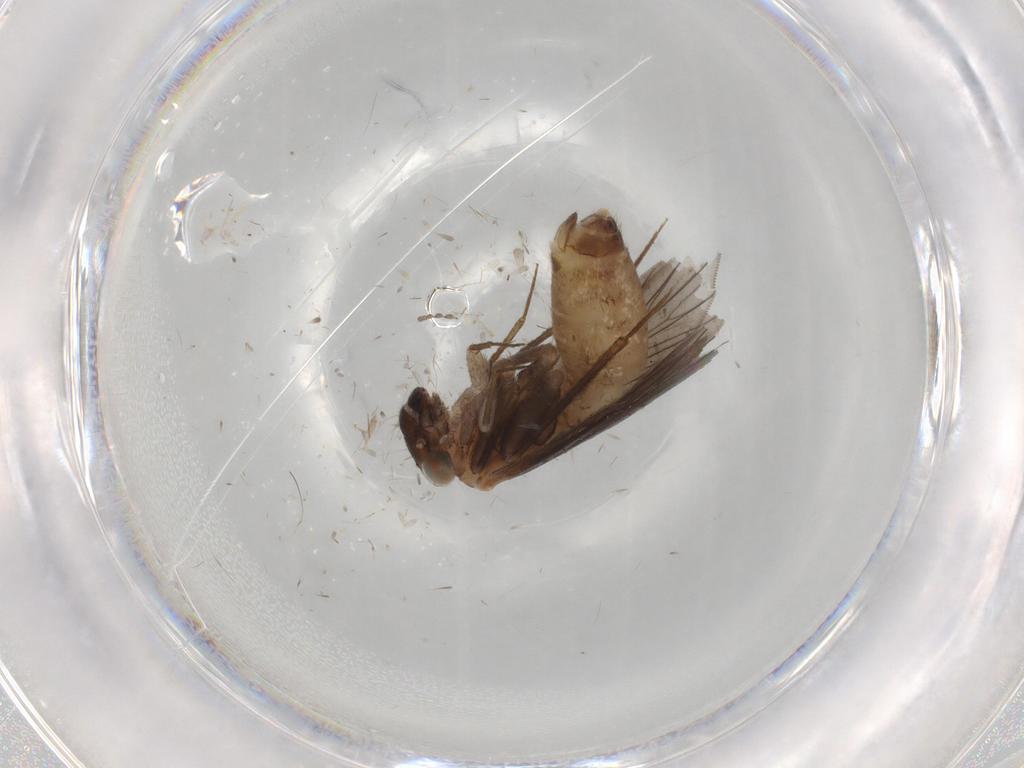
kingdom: Animalia
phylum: Arthropoda
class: Insecta
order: Psocodea
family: Lepidopsocidae
